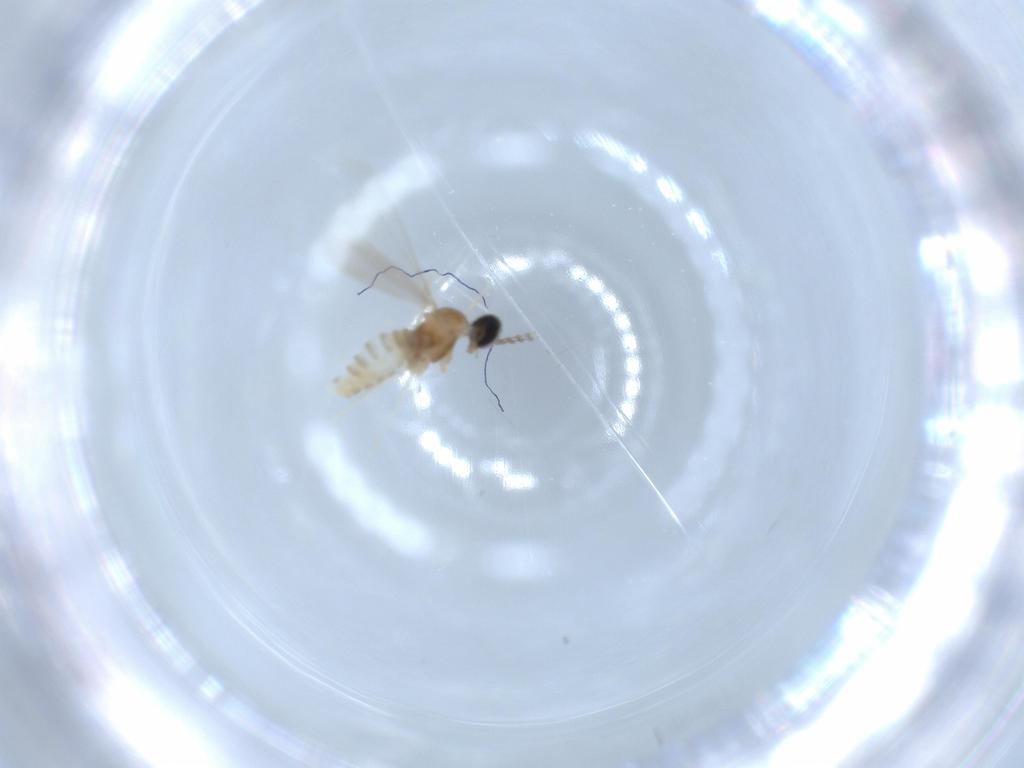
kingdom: Animalia
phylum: Arthropoda
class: Insecta
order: Diptera
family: Cecidomyiidae
